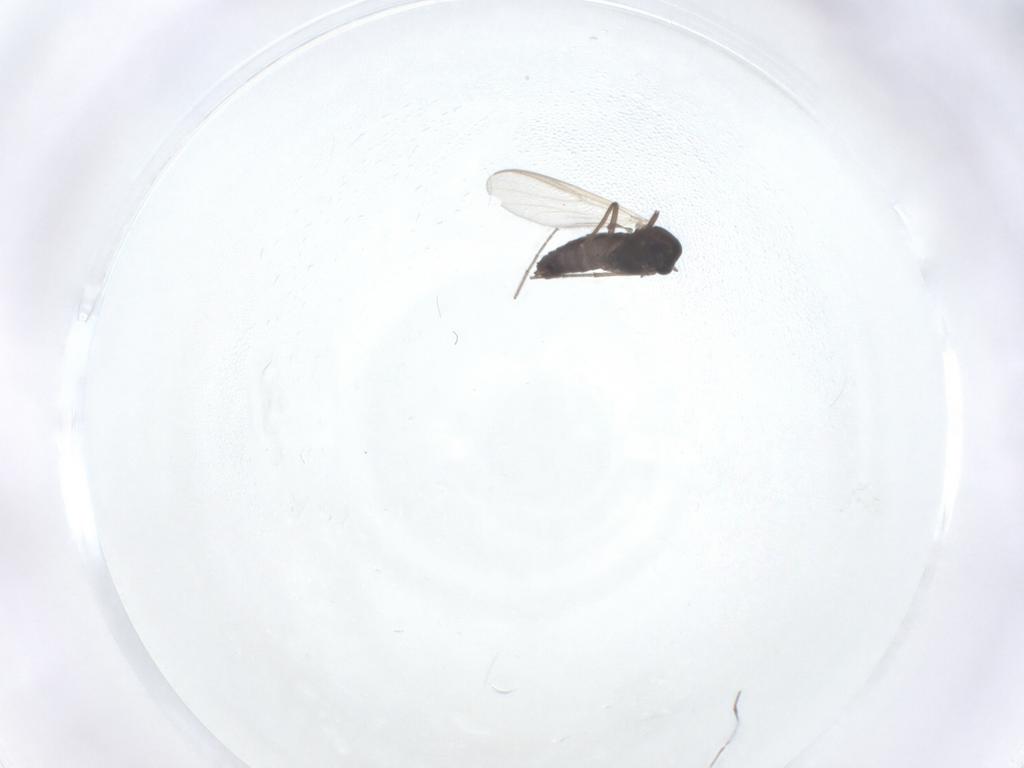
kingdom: Animalia
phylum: Arthropoda
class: Insecta
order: Diptera
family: Chironomidae
